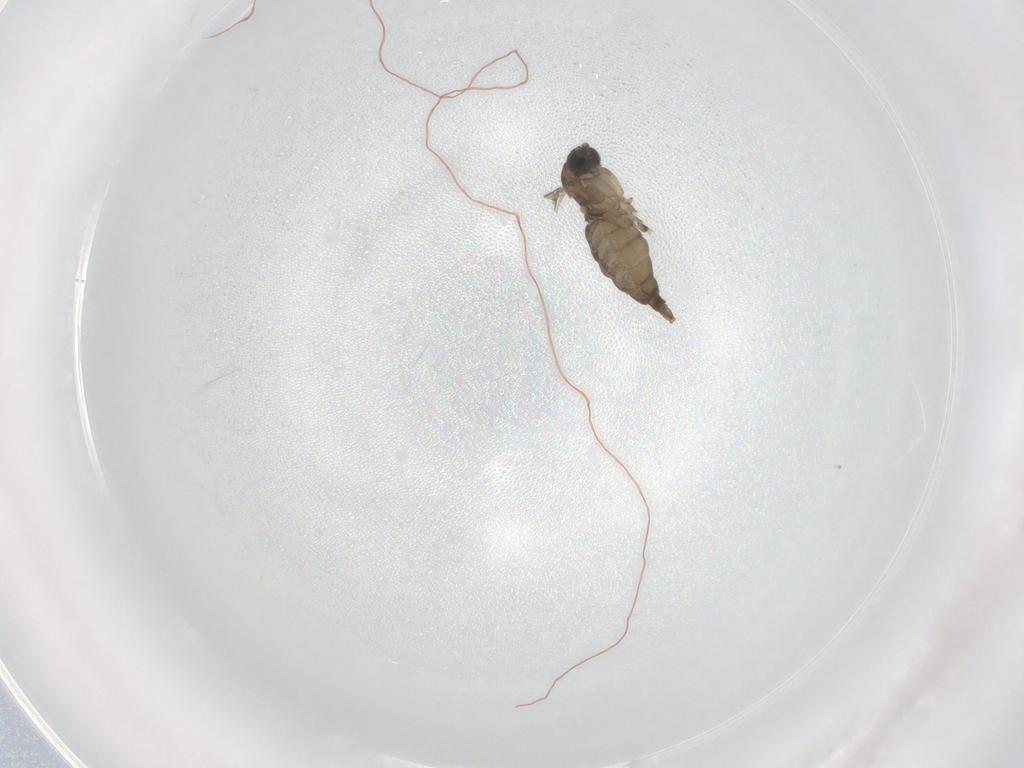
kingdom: Animalia
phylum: Arthropoda
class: Insecta
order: Diptera
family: Sciaridae
